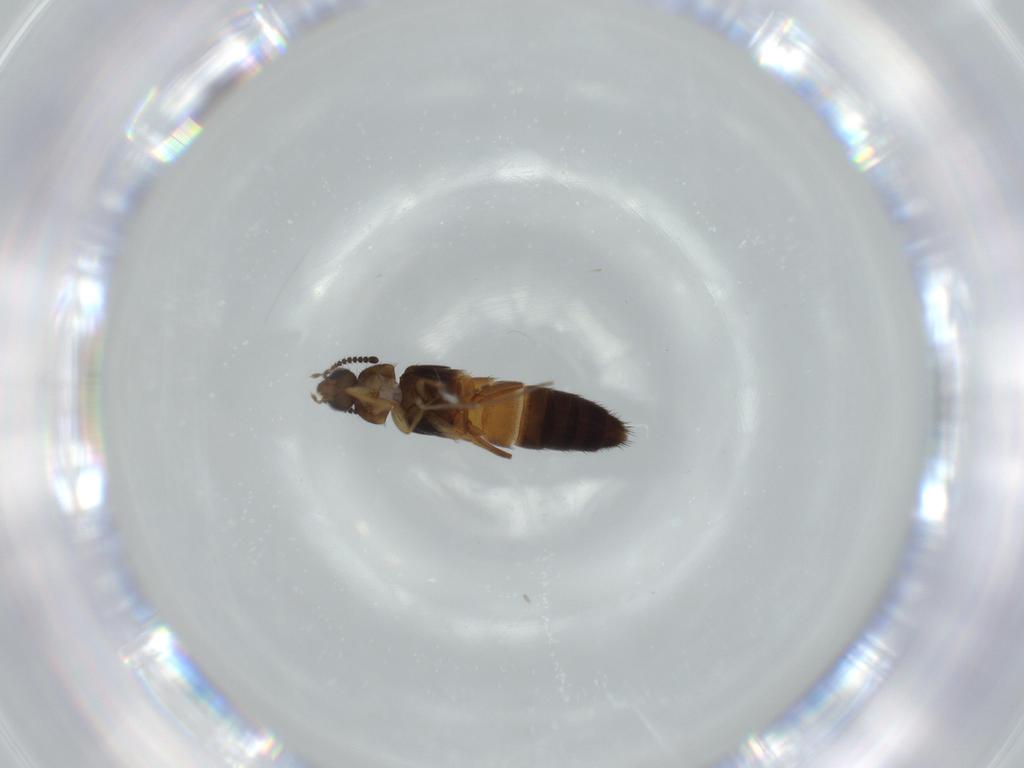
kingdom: Animalia
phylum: Arthropoda
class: Insecta
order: Coleoptera
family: Staphylinidae
